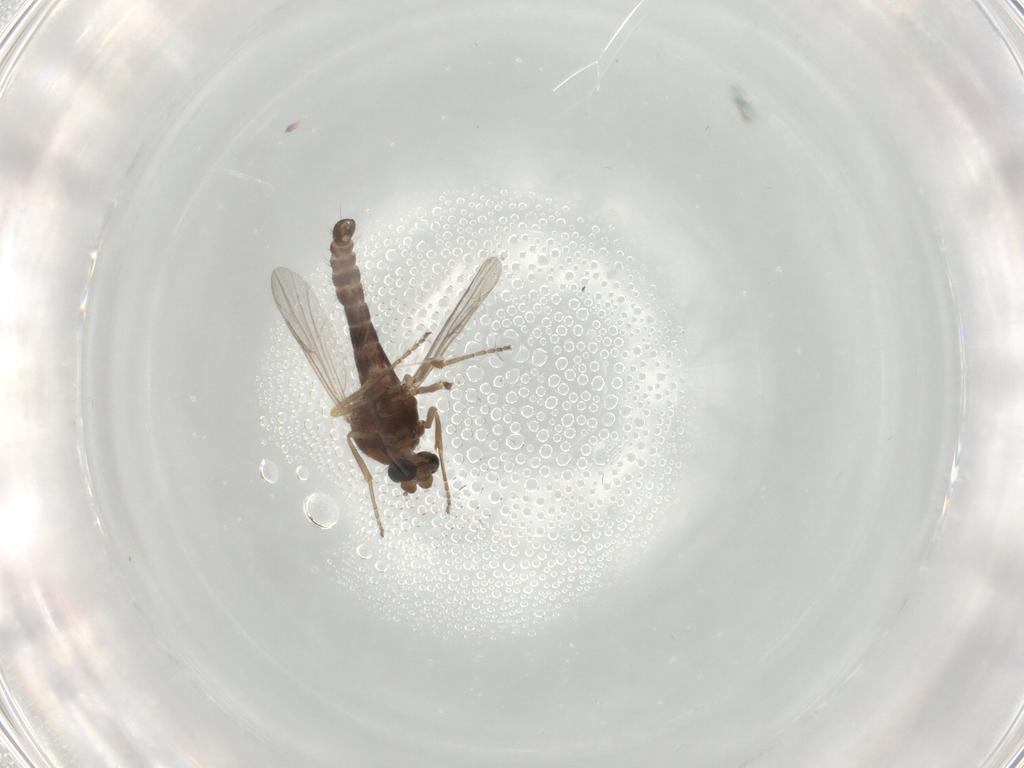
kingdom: Animalia
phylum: Arthropoda
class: Insecta
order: Diptera
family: Ceratopogonidae
